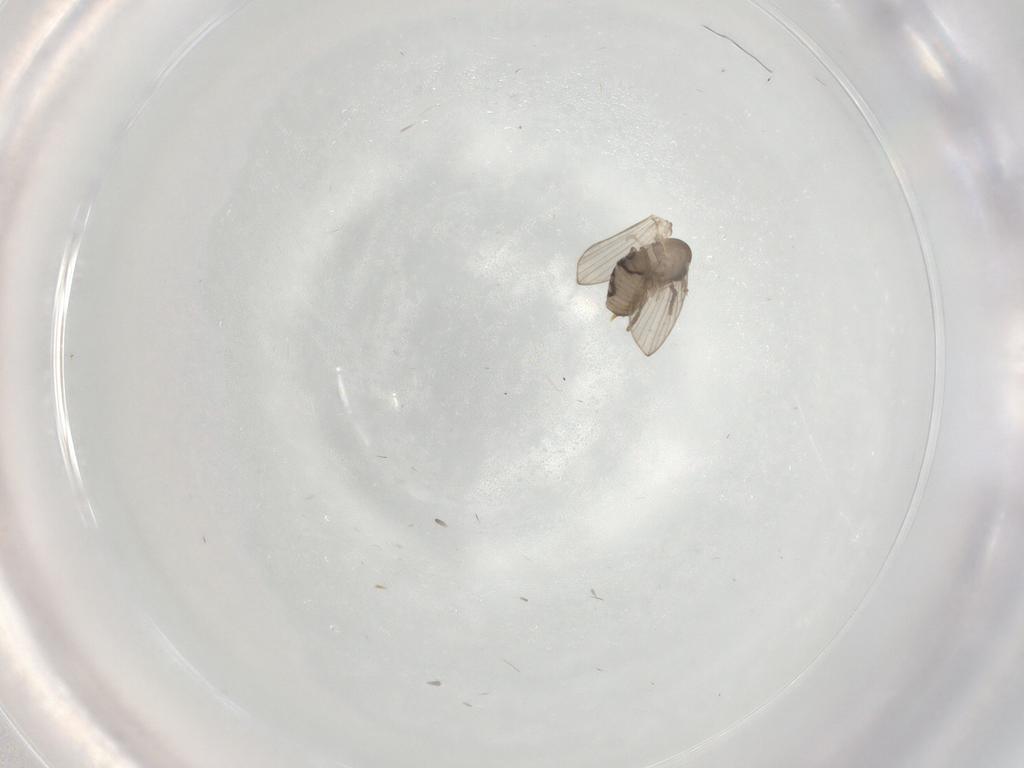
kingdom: Animalia
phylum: Arthropoda
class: Insecta
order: Diptera
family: Psychodidae
